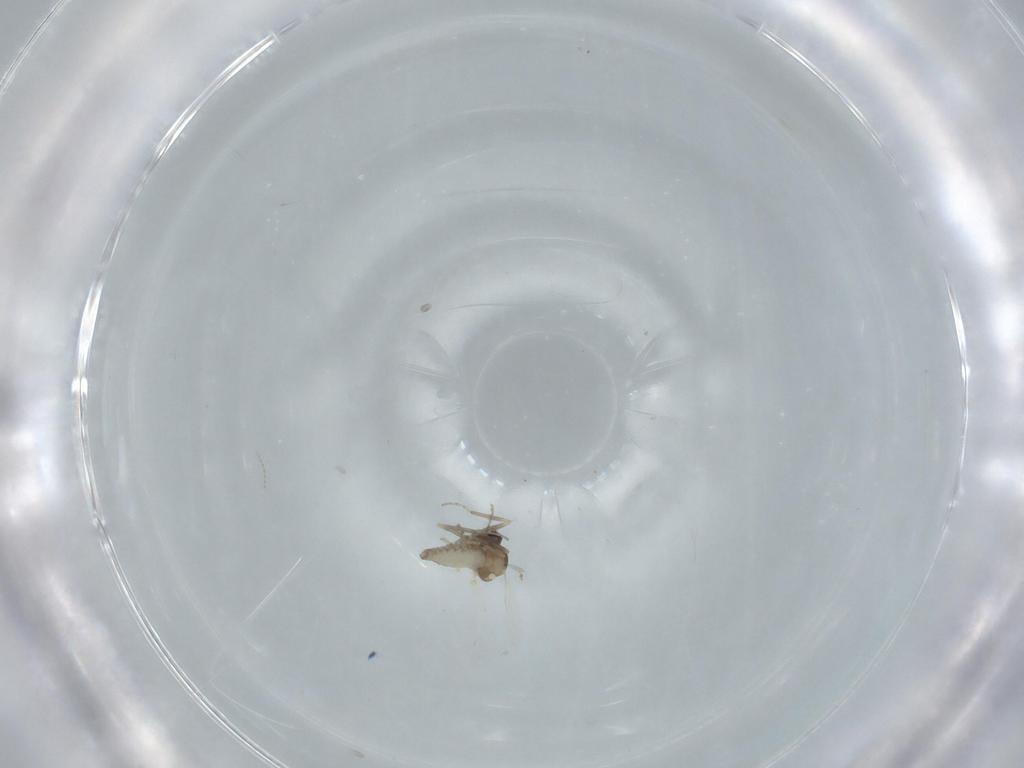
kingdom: Animalia
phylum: Arthropoda
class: Insecta
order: Diptera
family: Ceratopogonidae
